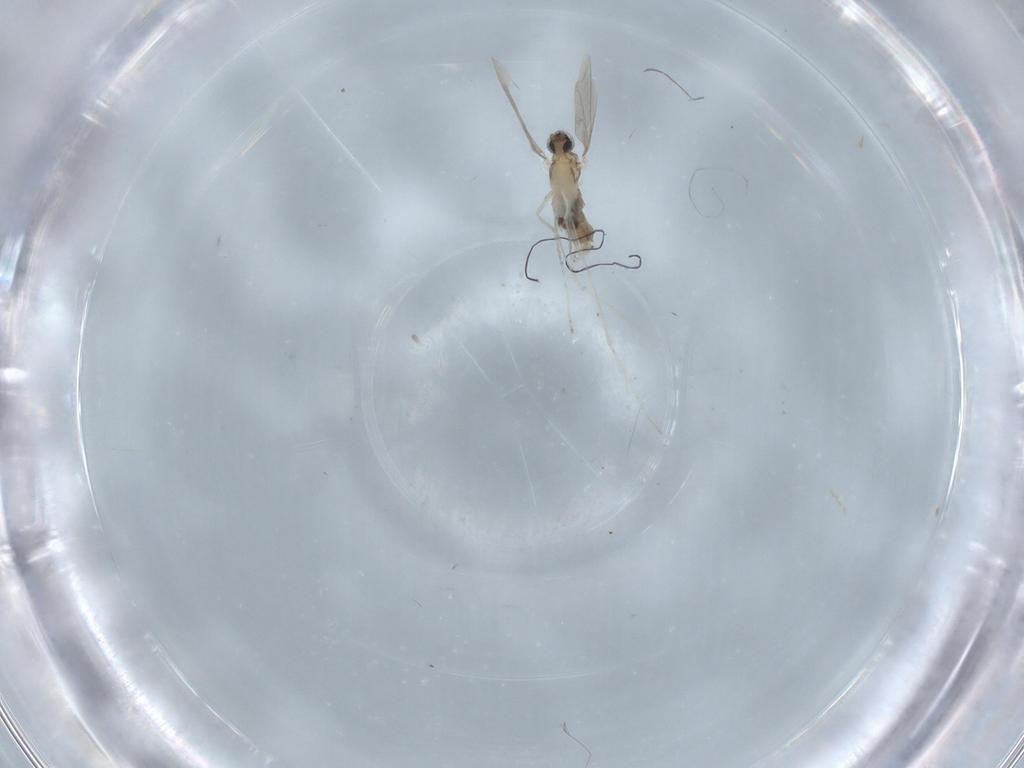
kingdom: Animalia
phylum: Arthropoda
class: Insecta
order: Diptera
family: Cecidomyiidae
